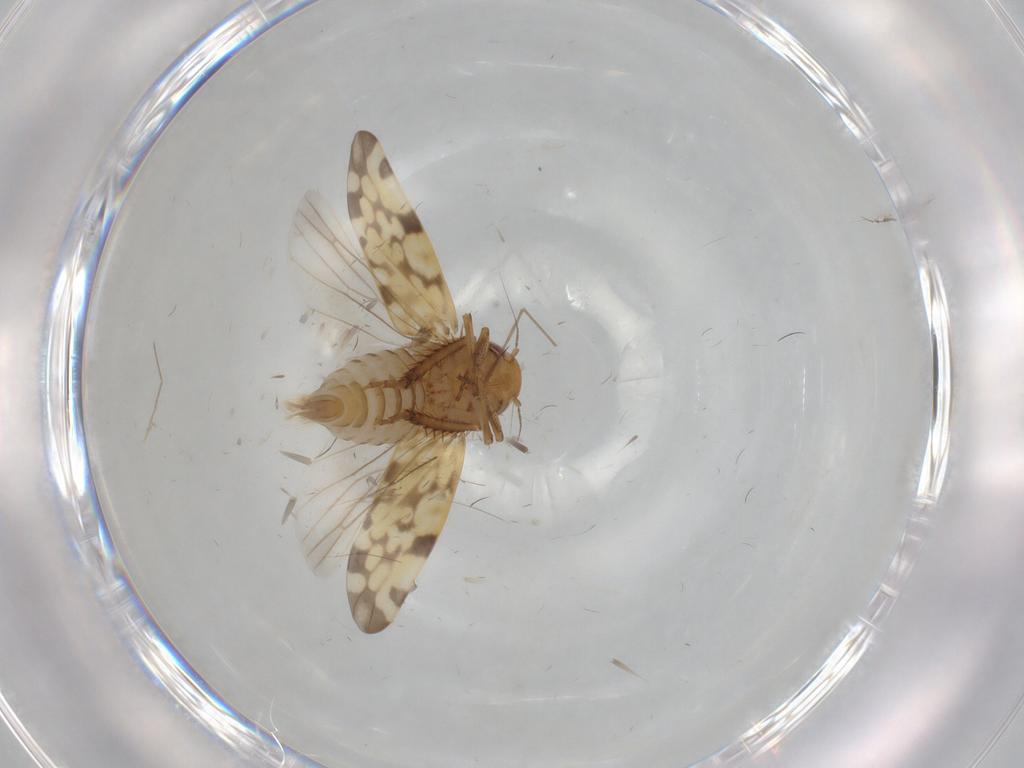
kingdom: Animalia
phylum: Arthropoda
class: Insecta
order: Hemiptera
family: Cicadellidae
